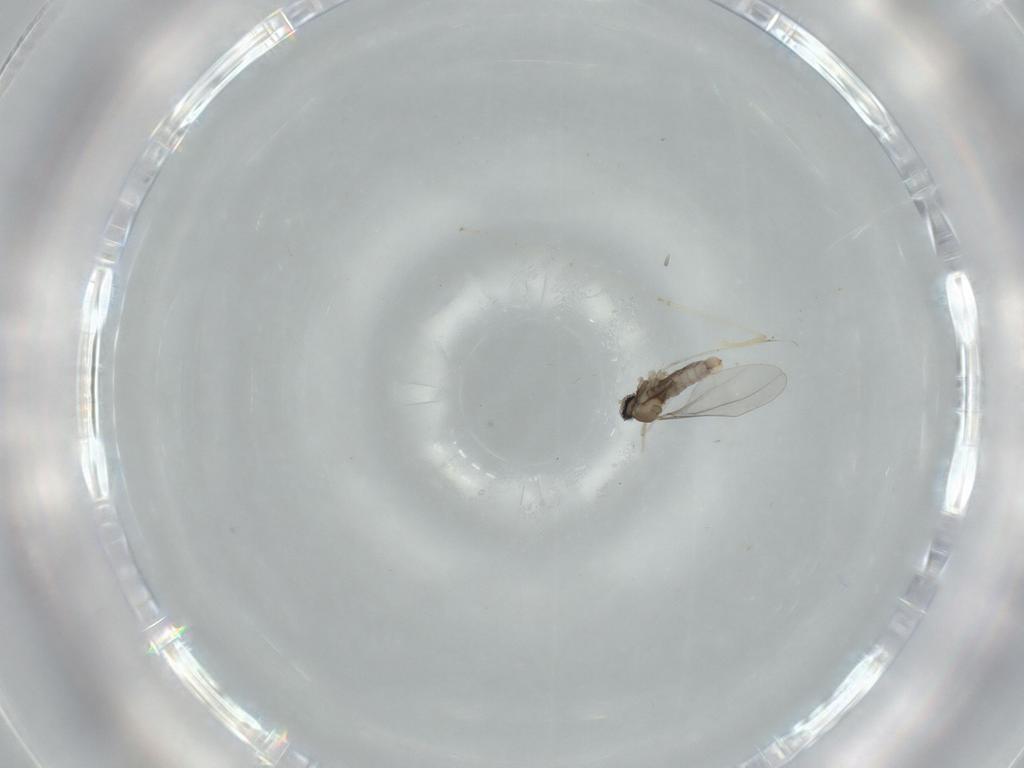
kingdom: Animalia
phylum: Arthropoda
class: Insecta
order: Diptera
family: Cecidomyiidae
